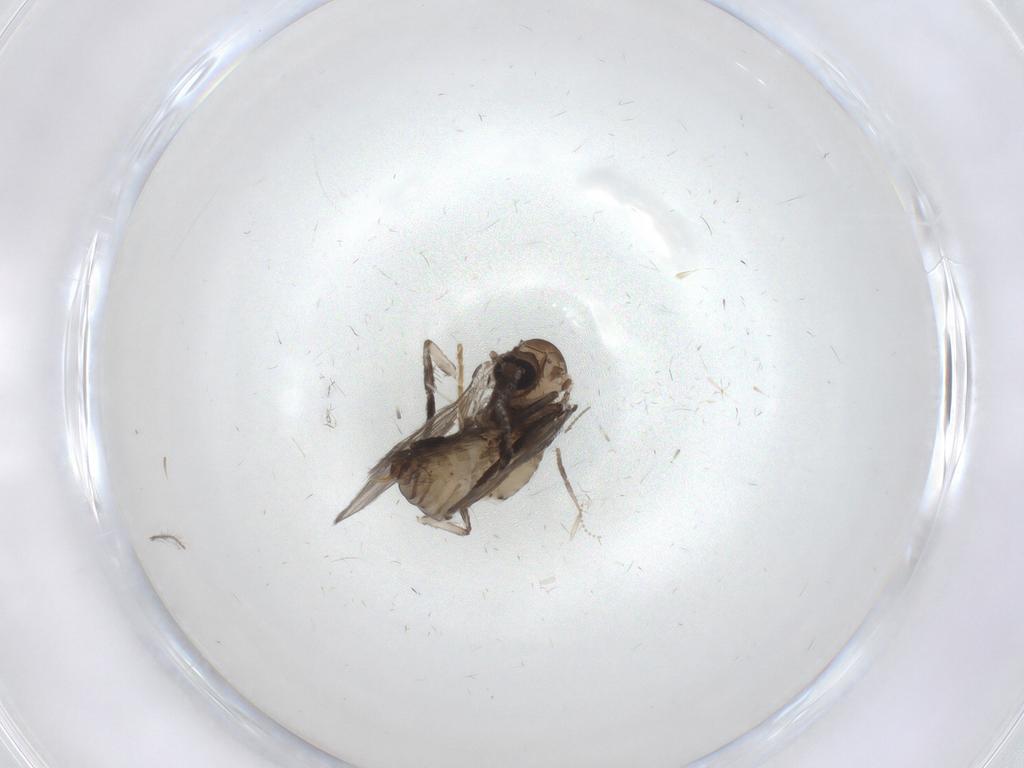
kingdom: Animalia
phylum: Arthropoda
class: Insecta
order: Diptera
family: Psychodidae
